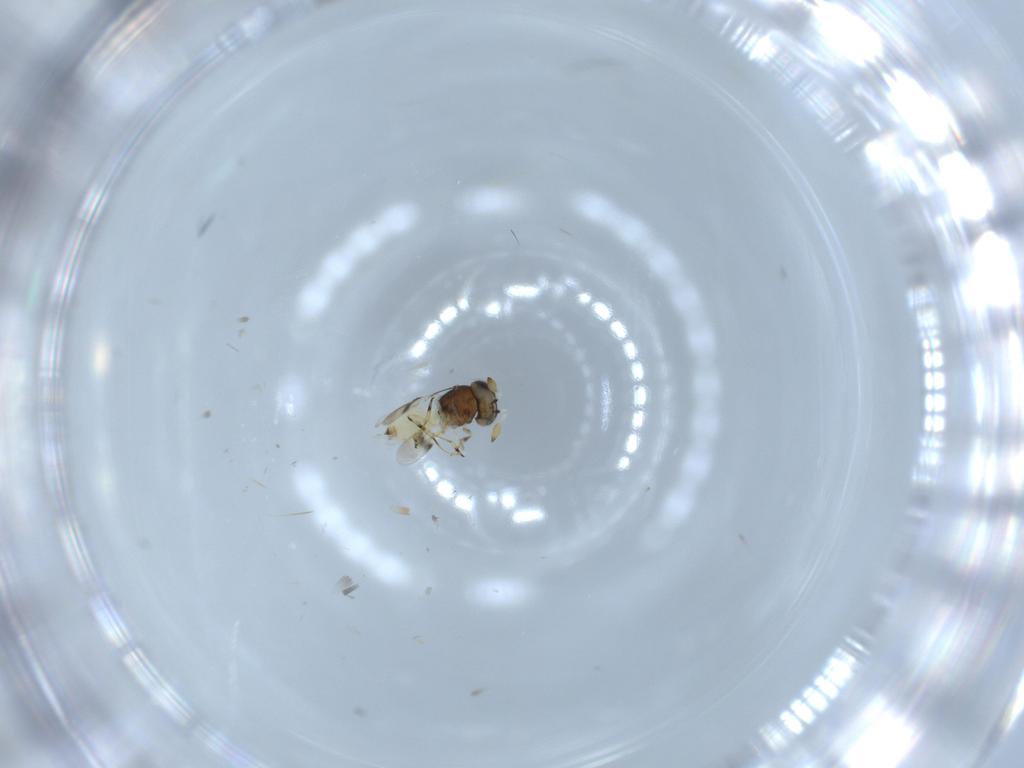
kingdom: Animalia
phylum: Arthropoda
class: Insecta
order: Hymenoptera
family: Scelionidae
